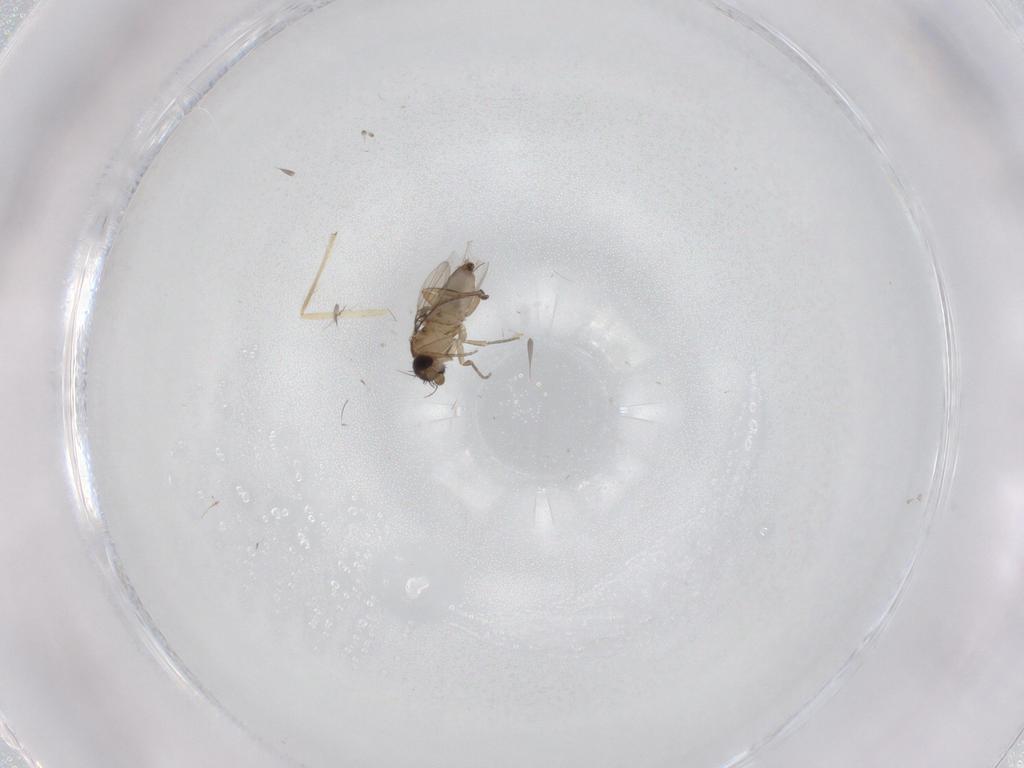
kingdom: Animalia
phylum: Arthropoda
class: Insecta
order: Diptera
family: Phoridae
